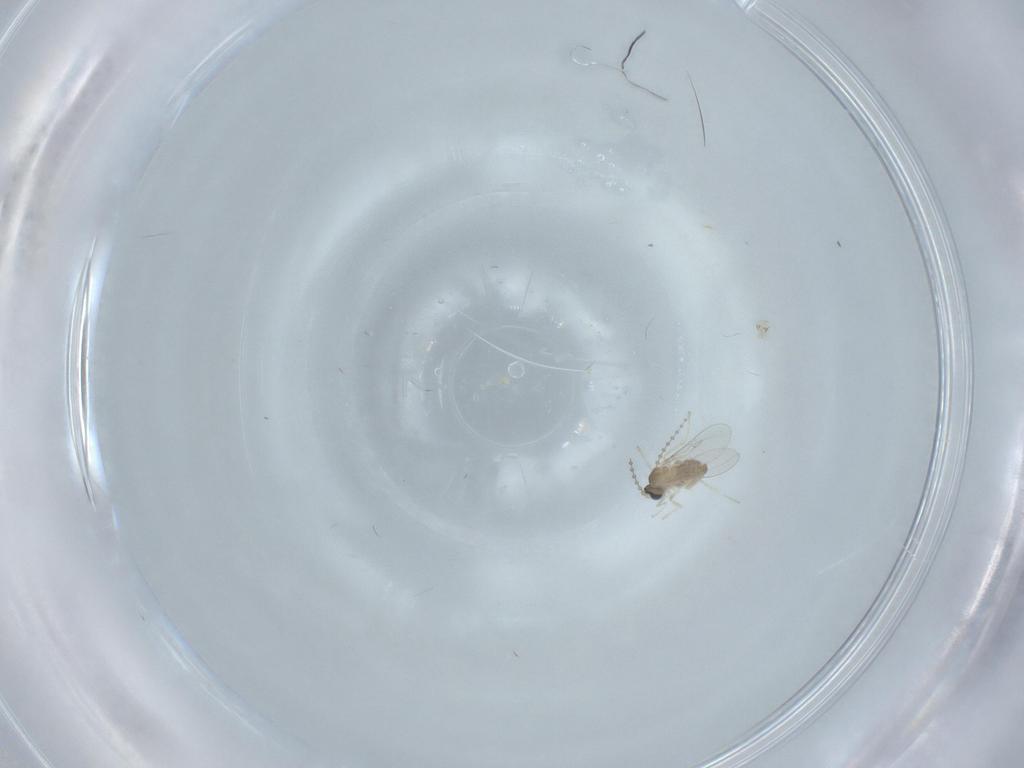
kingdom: Animalia
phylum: Arthropoda
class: Insecta
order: Diptera
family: Cecidomyiidae
